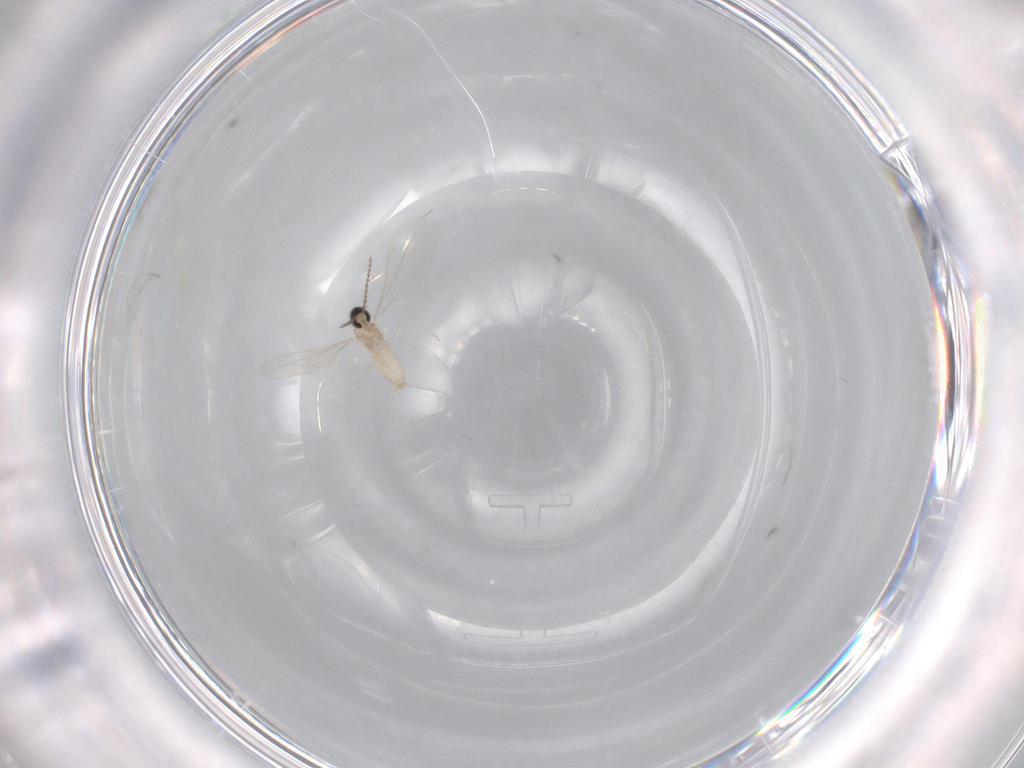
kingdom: Animalia
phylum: Arthropoda
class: Insecta
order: Diptera
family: Cecidomyiidae
